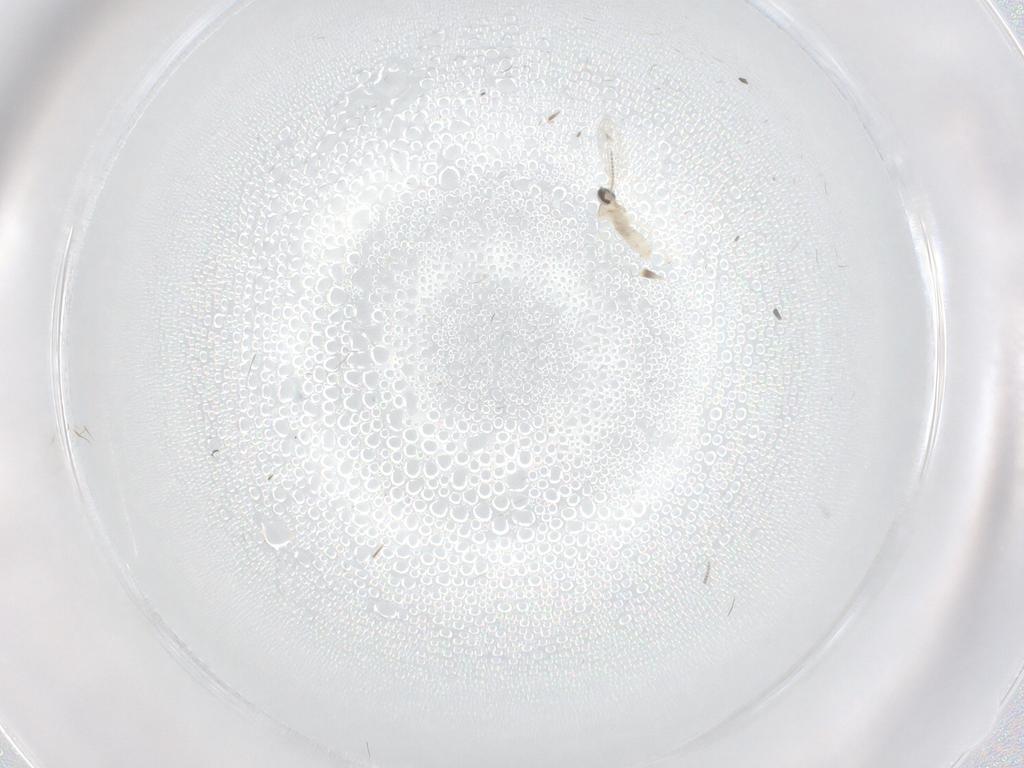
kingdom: Animalia
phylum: Arthropoda
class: Insecta
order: Diptera
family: Cecidomyiidae
